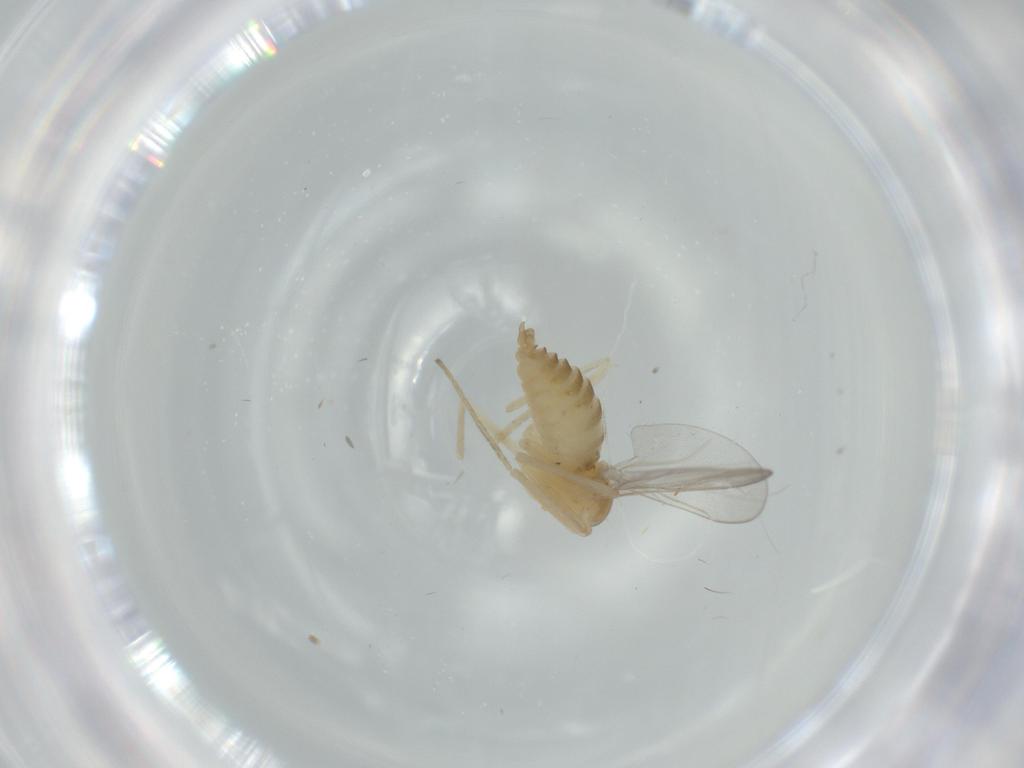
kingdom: Animalia
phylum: Arthropoda
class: Insecta
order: Diptera
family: Cecidomyiidae
